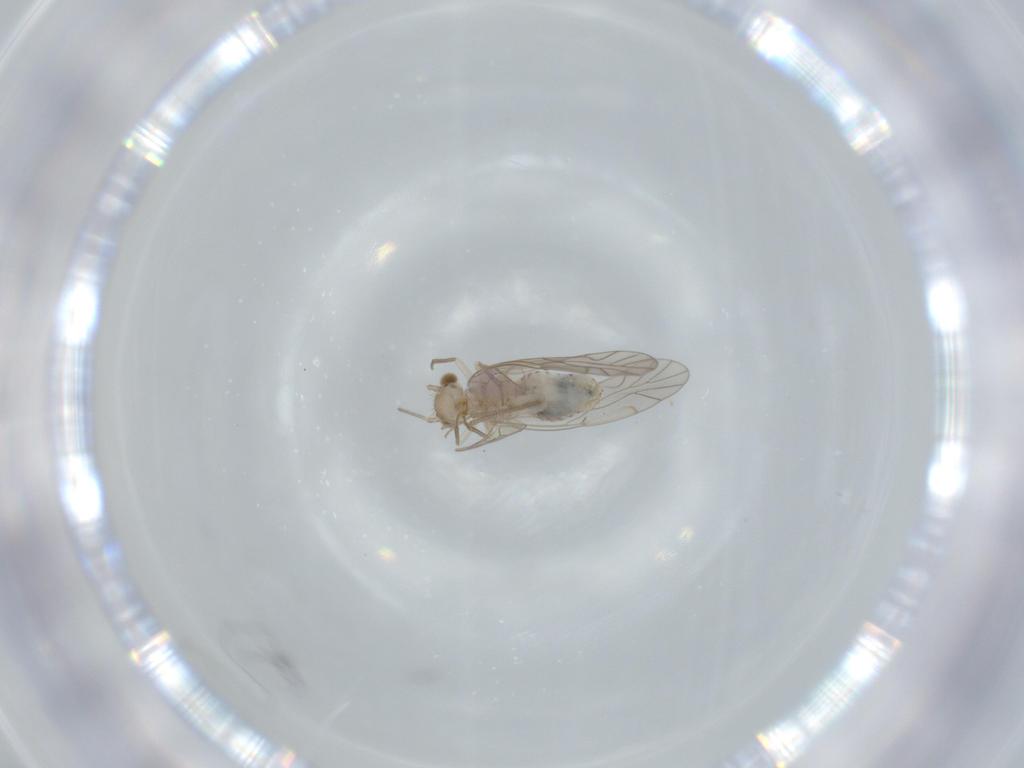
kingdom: Animalia
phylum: Arthropoda
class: Insecta
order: Psocodea
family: Lachesillidae
